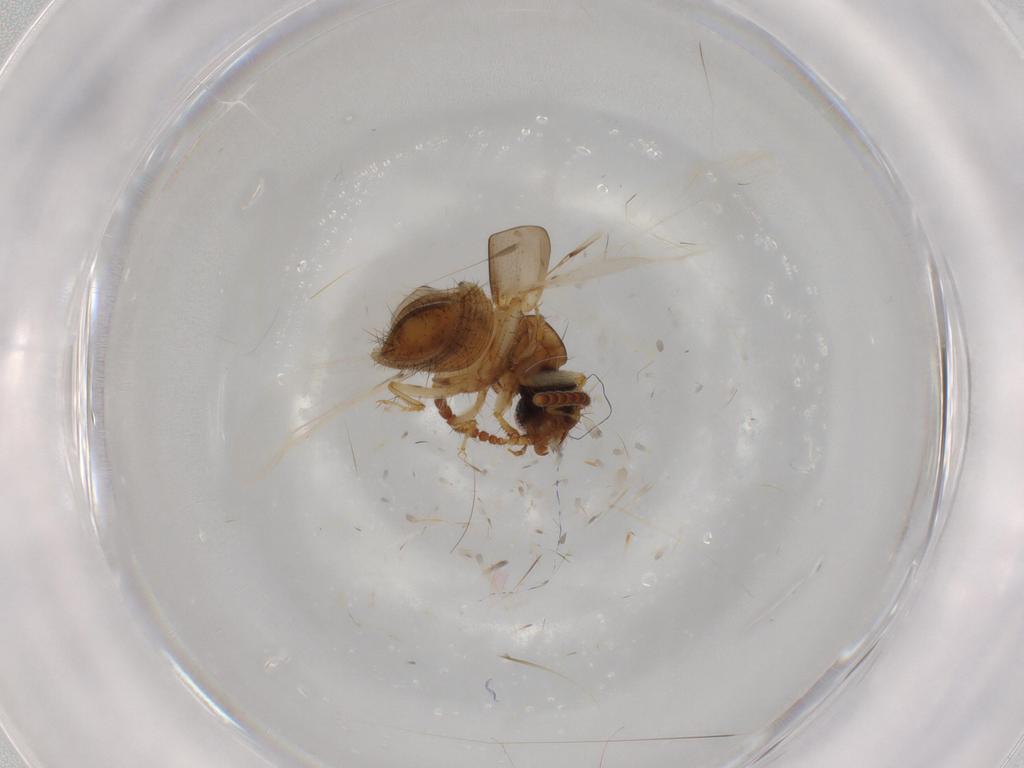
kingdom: Animalia
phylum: Arthropoda
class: Insecta
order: Coleoptera
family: Staphylinidae
